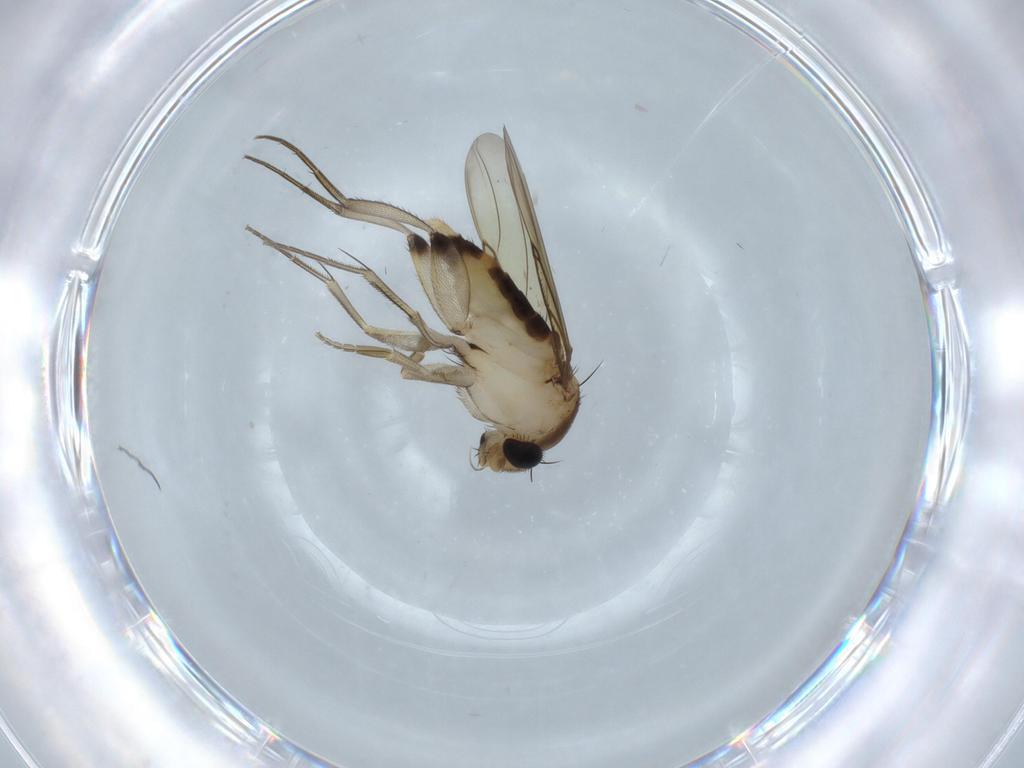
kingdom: Animalia
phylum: Arthropoda
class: Insecta
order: Diptera
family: Phoridae
